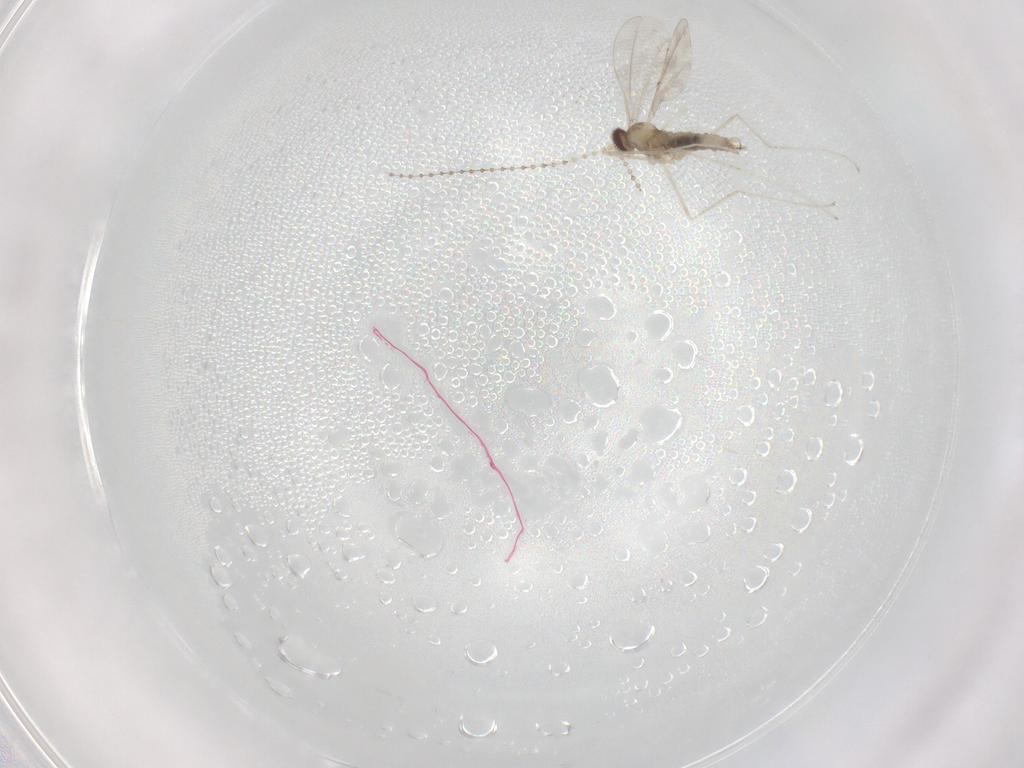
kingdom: Animalia
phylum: Arthropoda
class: Insecta
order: Diptera
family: Cecidomyiidae
